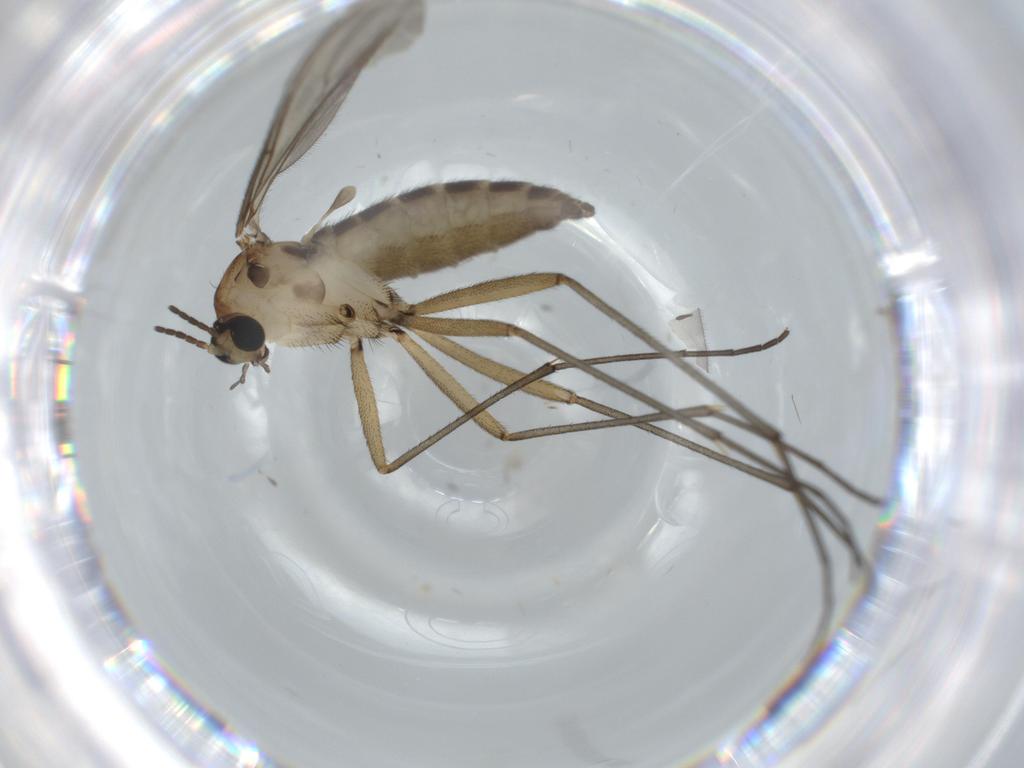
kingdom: Animalia
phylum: Arthropoda
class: Insecta
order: Diptera
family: Sciaridae
